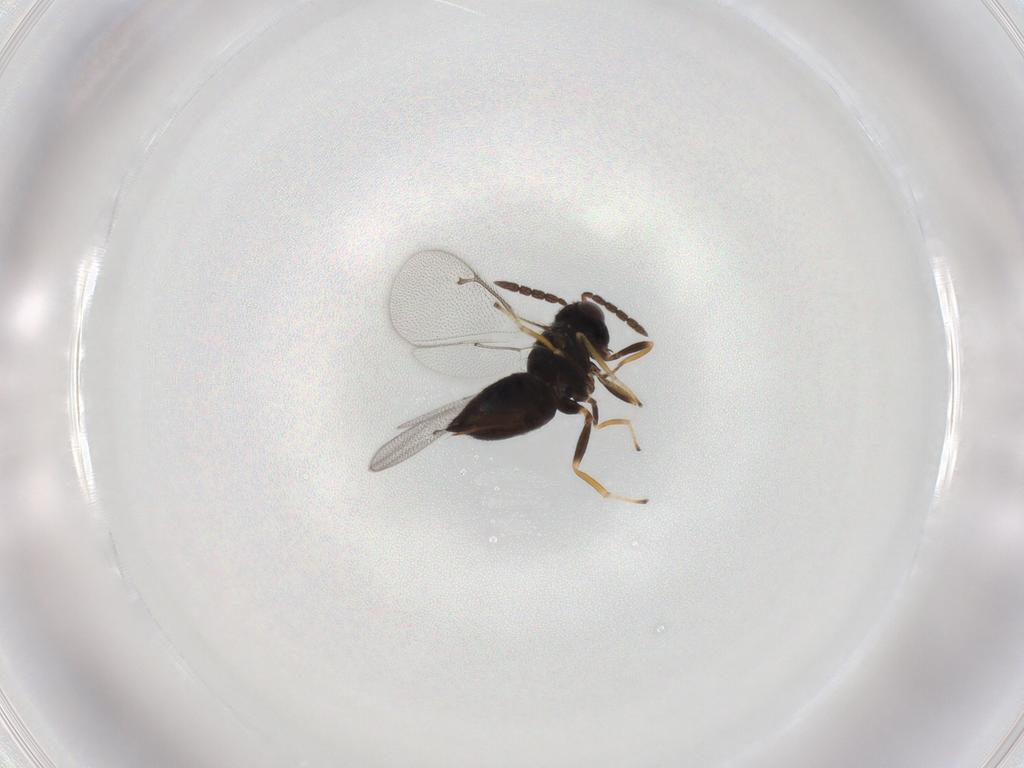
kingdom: Animalia
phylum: Arthropoda
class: Insecta
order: Hymenoptera
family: Eulophidae
